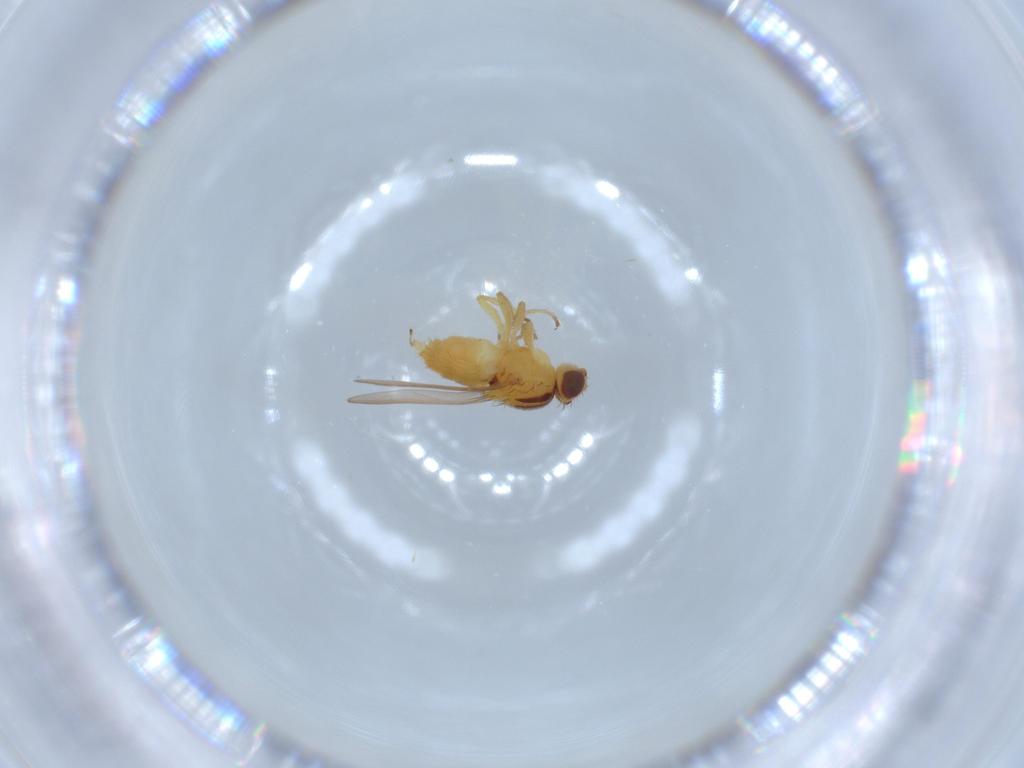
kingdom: Animalia
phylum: Arthropoda
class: Insecta
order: Diptera
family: Chloropidae
